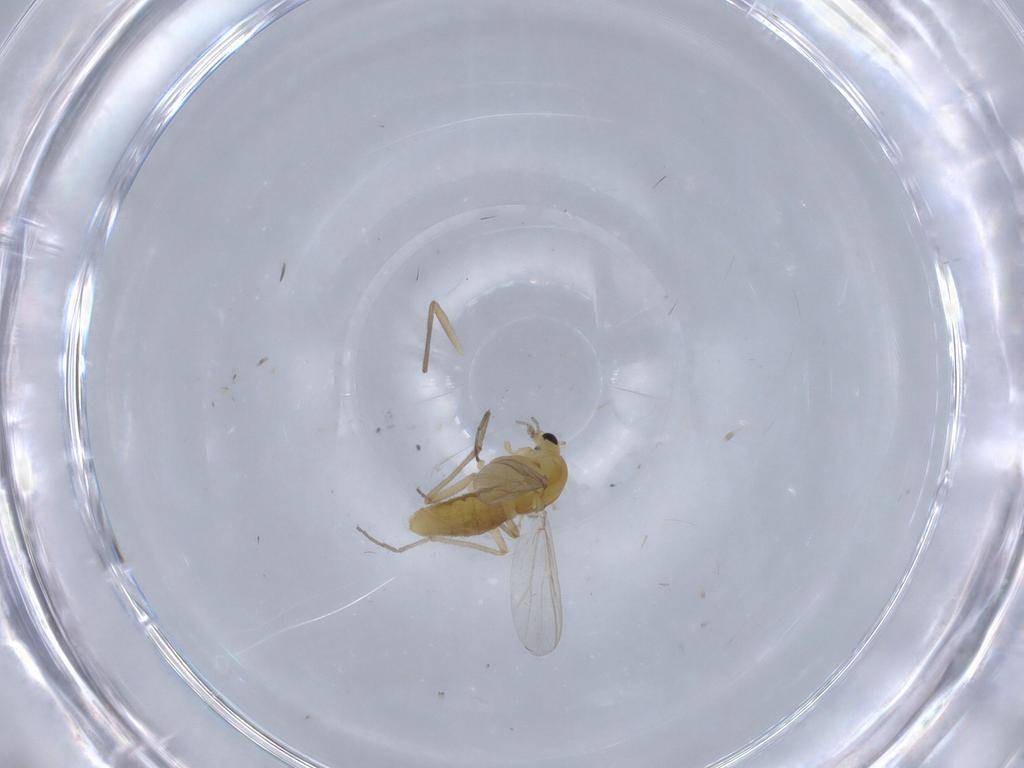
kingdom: Animalia
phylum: Arthropoda
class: Insecta
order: Diptera
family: Chironomidae
